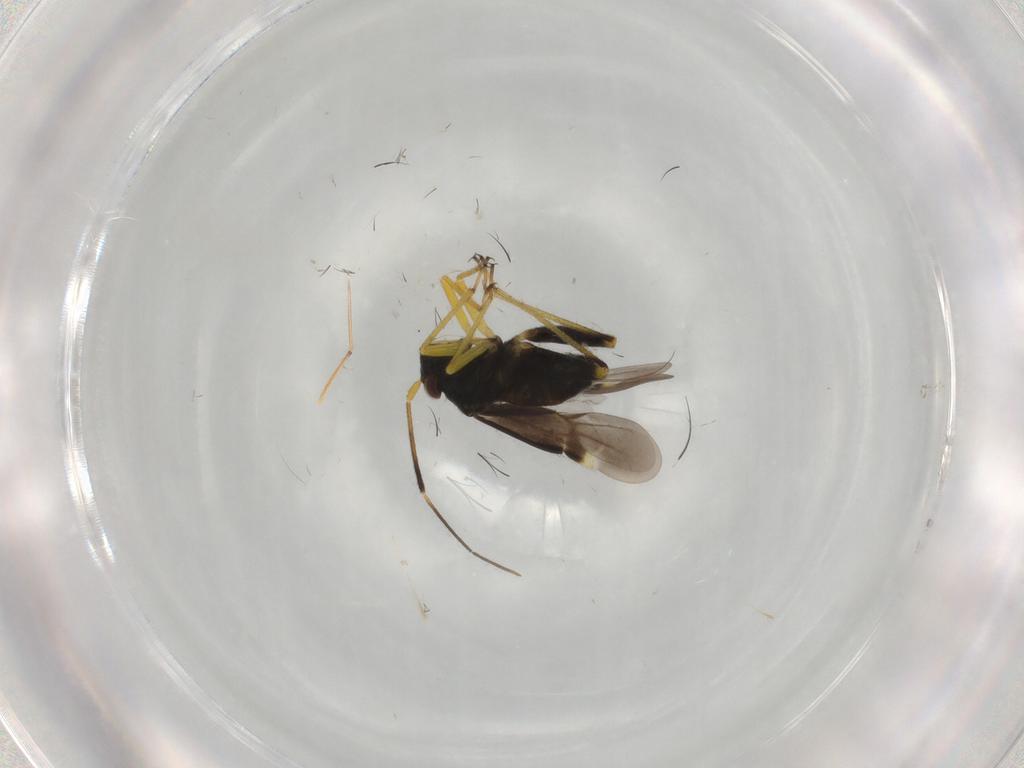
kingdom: Animalia
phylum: Arthropoda
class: Insecta
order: Hemiptera
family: Miridae
